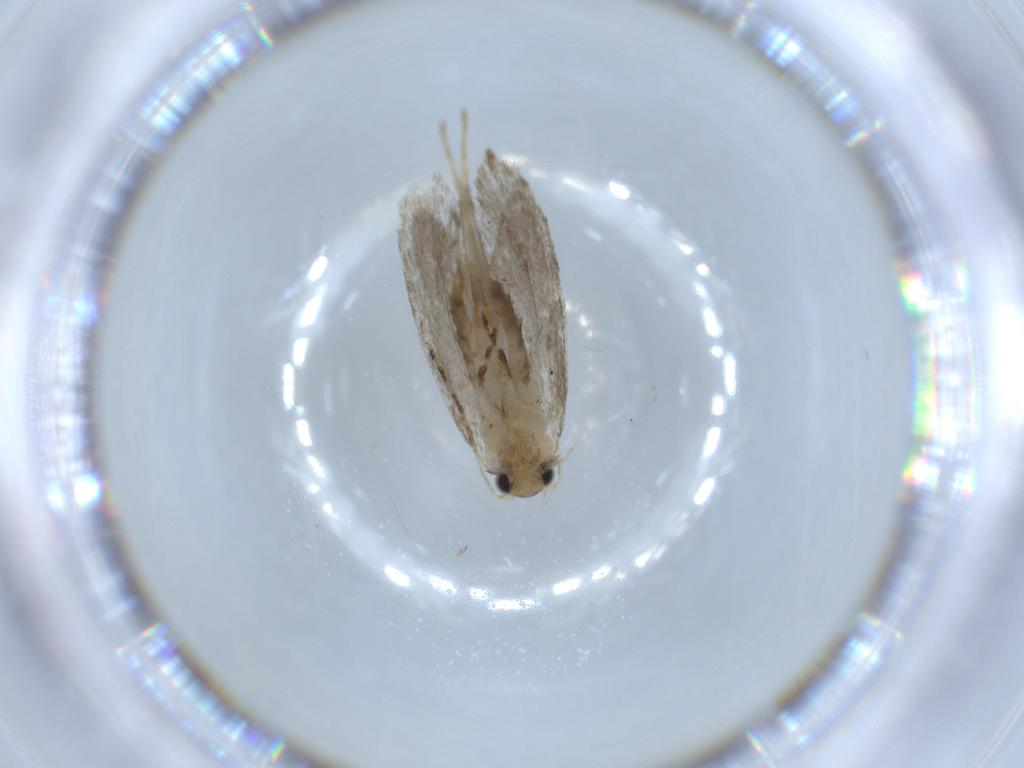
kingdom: Animalia
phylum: Arthropoda
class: Insecta
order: Lepidoptera
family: Tineidae
